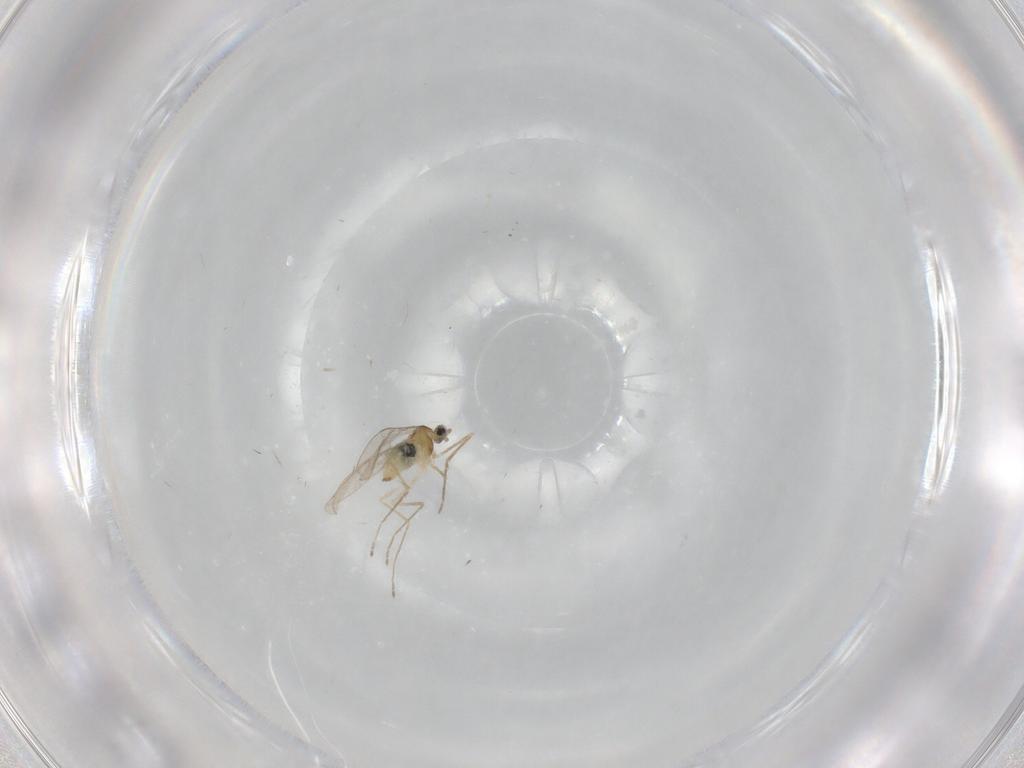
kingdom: Animalia
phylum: Arthropoda
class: Insecta
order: Diptera
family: Cecidomyiidae
